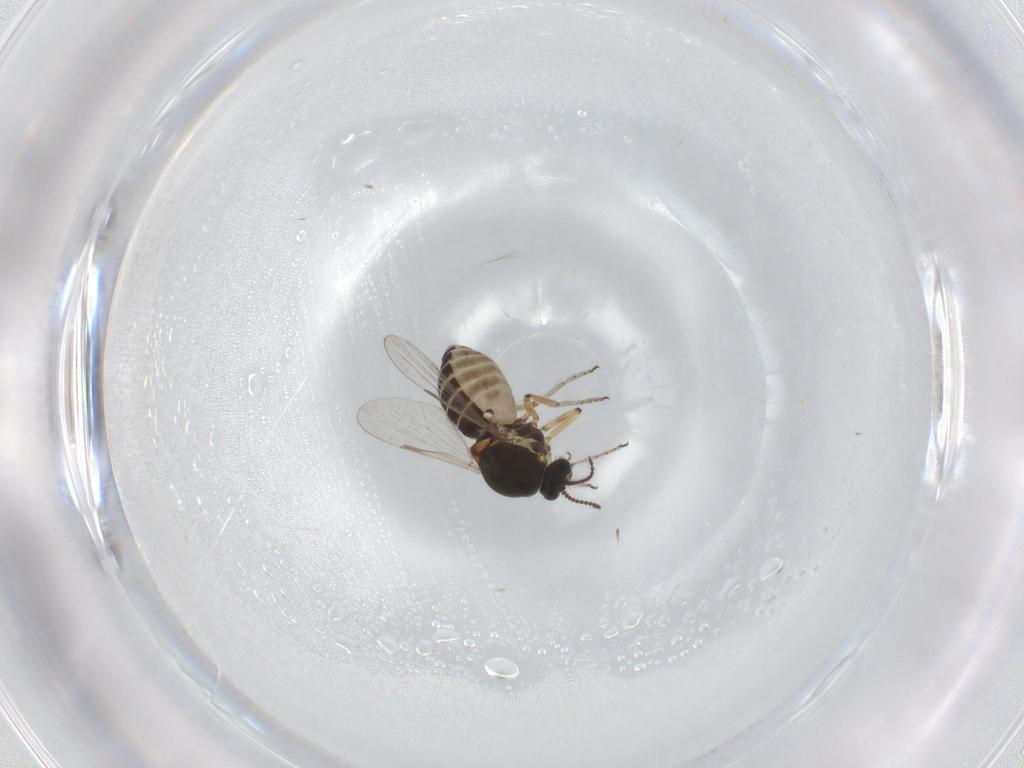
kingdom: Animalia
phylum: Arthropoda
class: Insecta
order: Diptera
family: Ceratopogonidae
